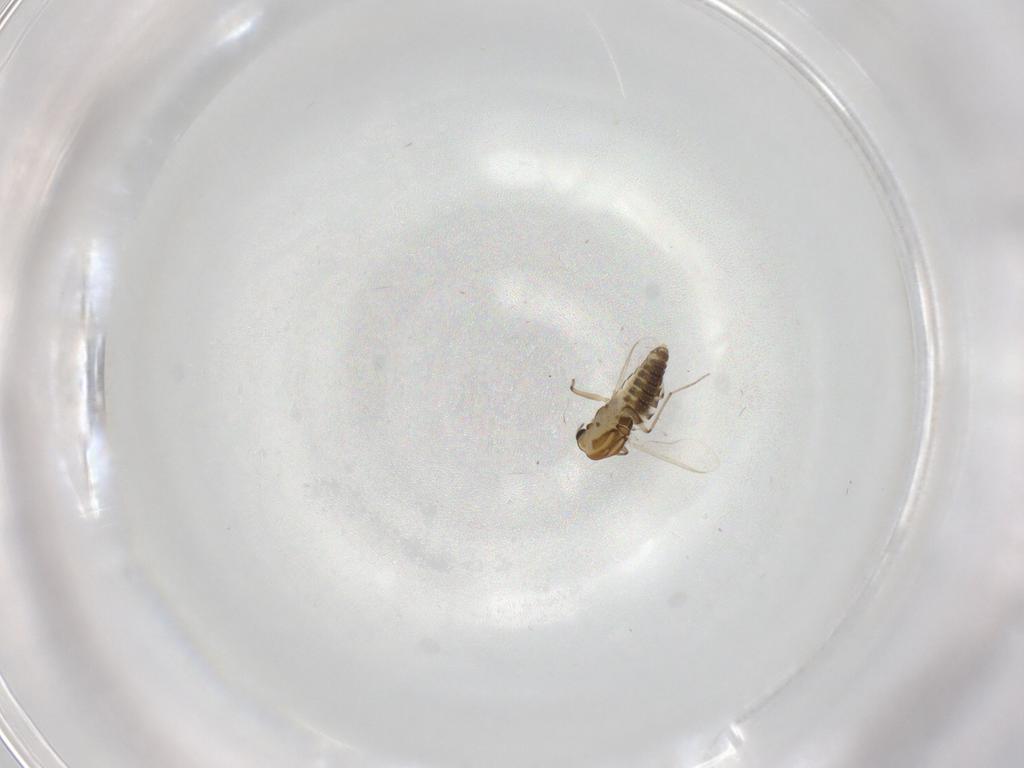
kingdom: Animalia
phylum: Arthropoda
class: Insecta
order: Diptera
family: Chironomidae
